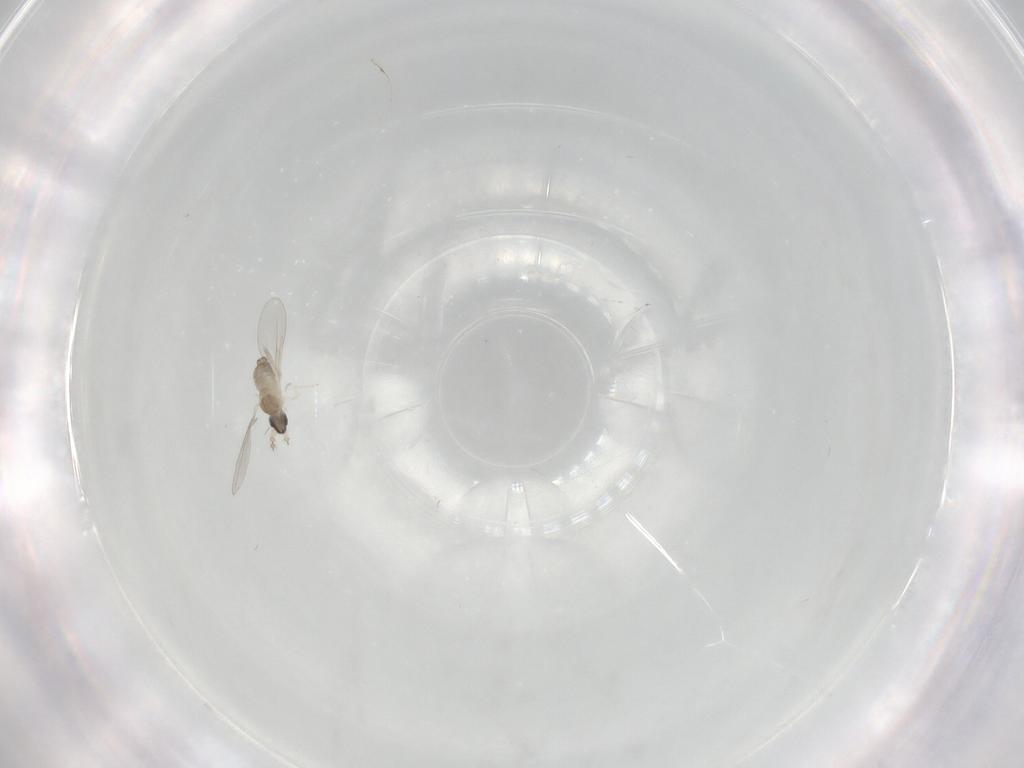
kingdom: Animalia
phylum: Arthropoda
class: Insecta
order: Diptera
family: Cecidomyiidae
